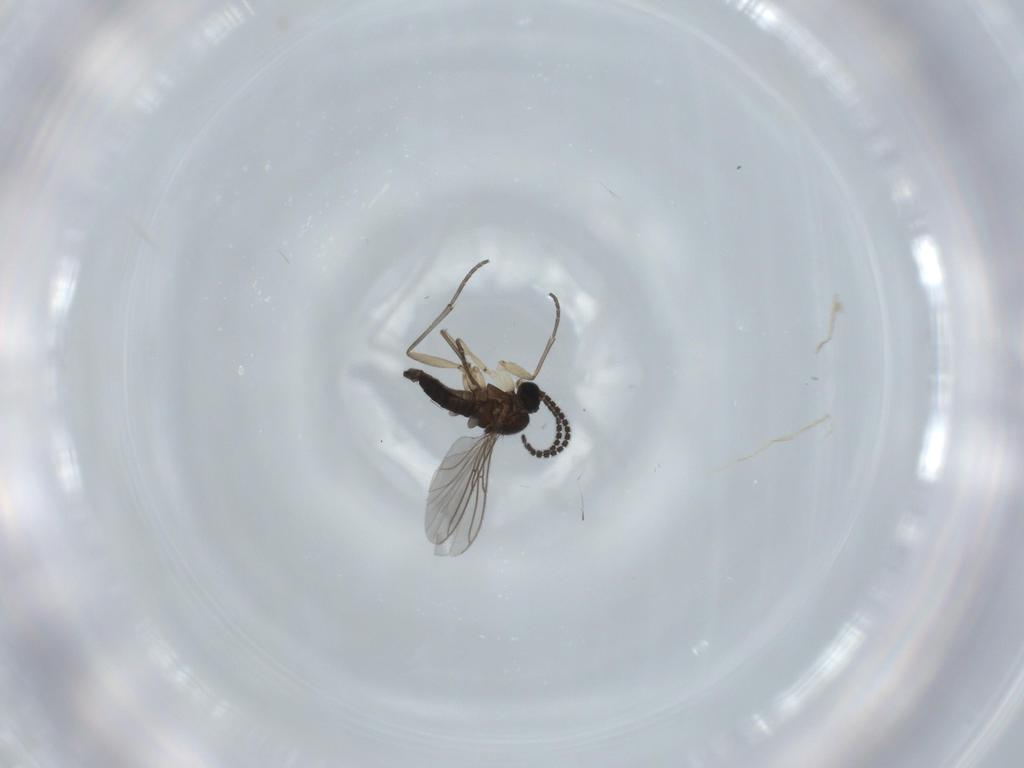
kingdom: Animalia
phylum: Arthropoda
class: Insecta
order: Diptera
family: Sciaridae
